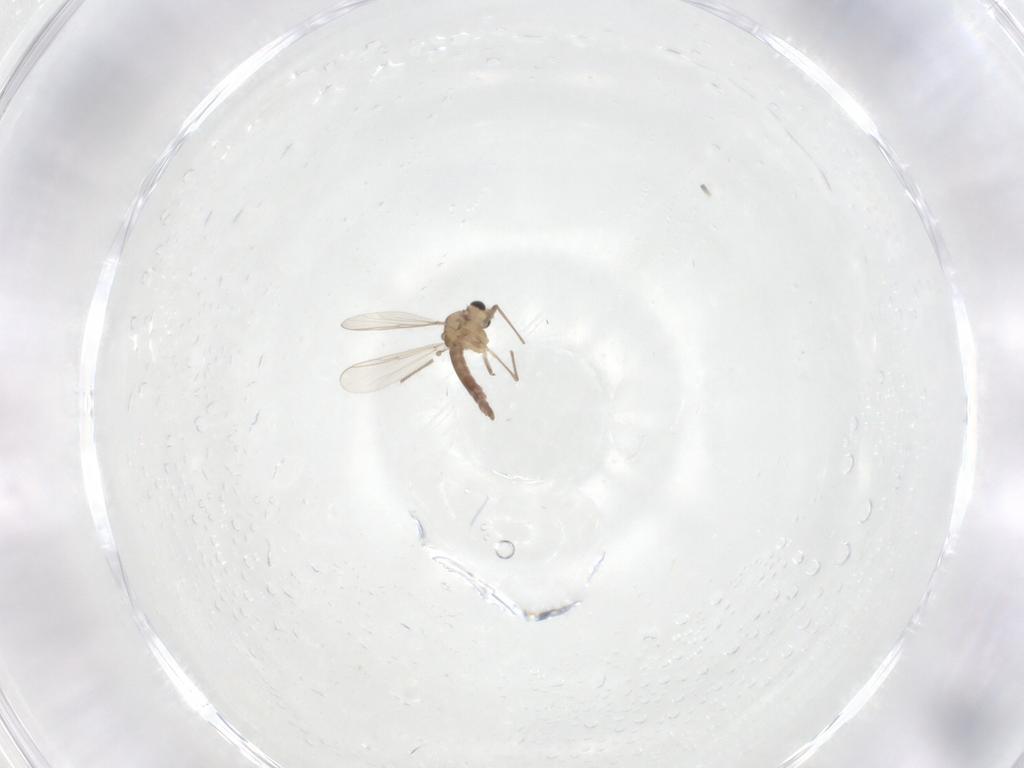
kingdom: Animalia
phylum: Arthropoda
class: Insecta
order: Diptera
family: Chironomidae
